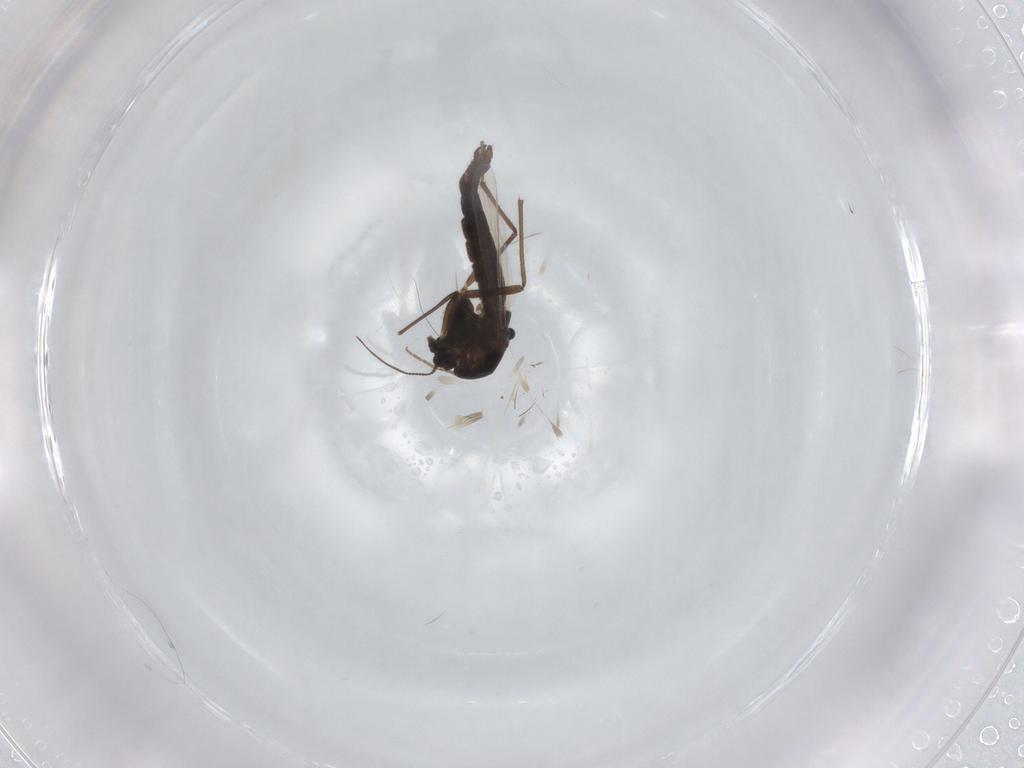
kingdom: Animalia
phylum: Arthropoda
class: Insecta
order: Diptera
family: Chironomidae
